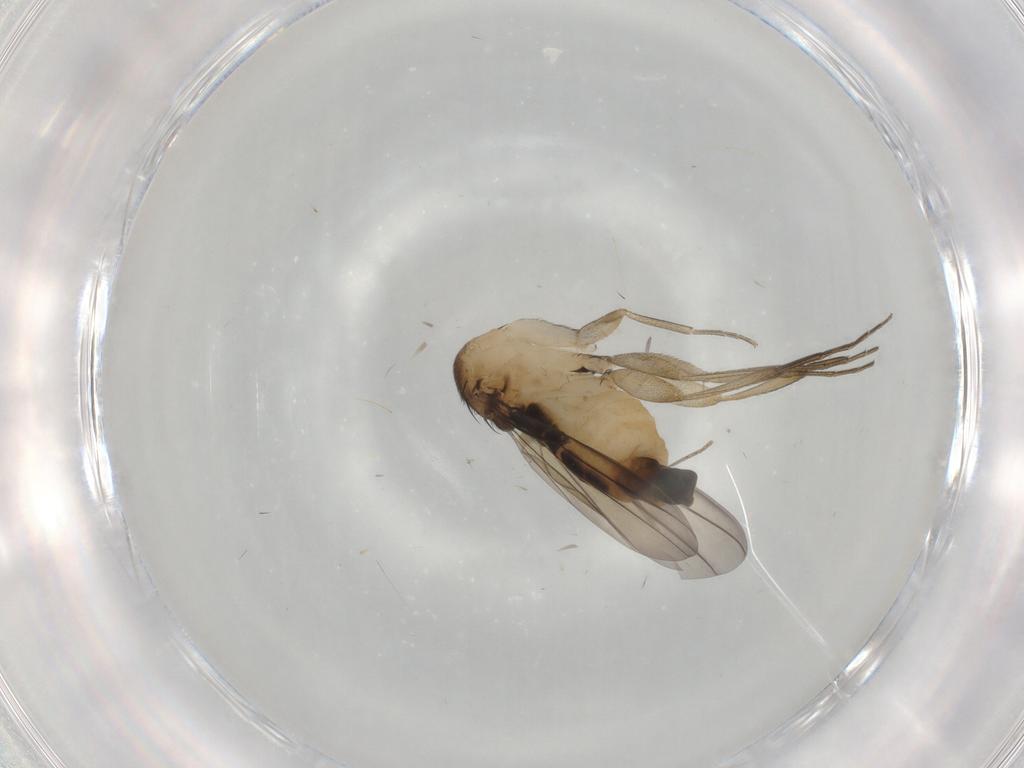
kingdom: Animalia
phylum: Arthropoda
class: Insecta
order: Diptera
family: Phoridae
